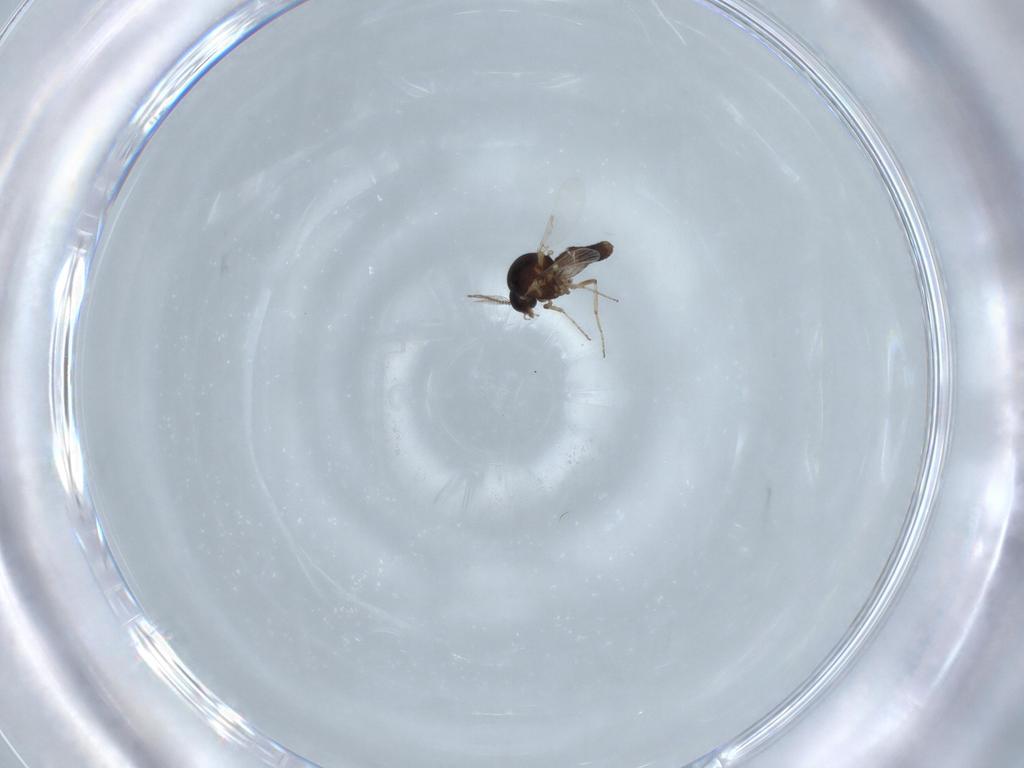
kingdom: Animalia
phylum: Arthropoda
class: Insecta
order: Diptera
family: Ceratopogonidae
